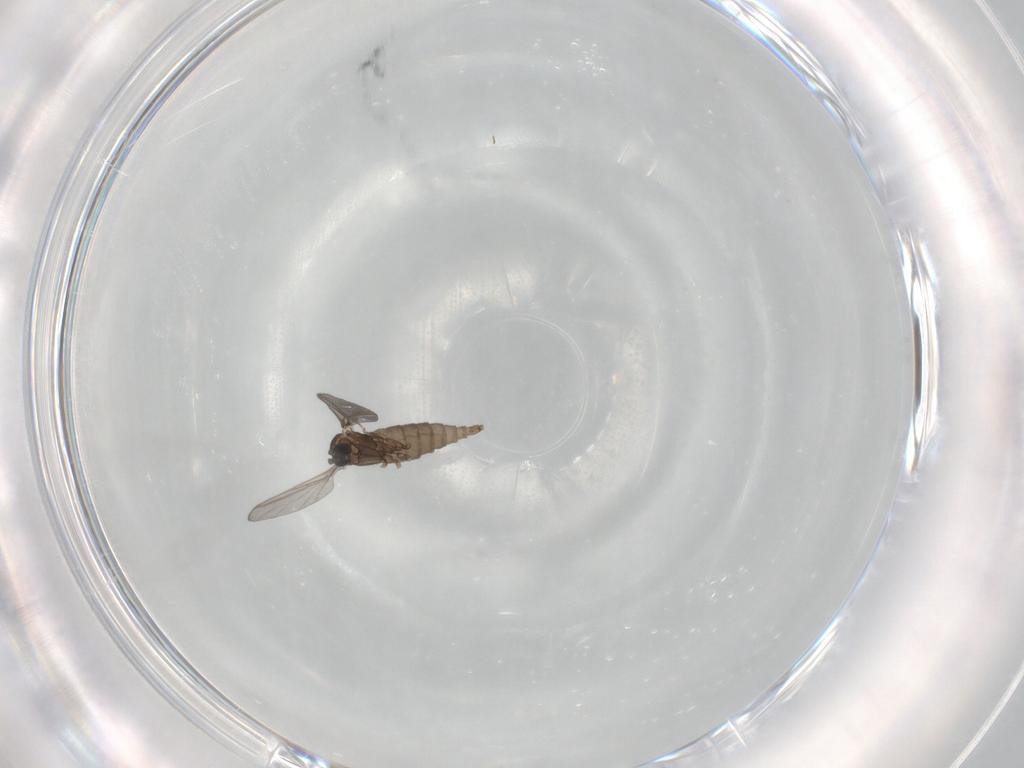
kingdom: Animalia
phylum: Arthropoda
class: Insecta
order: Diptera
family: Sciaridae
